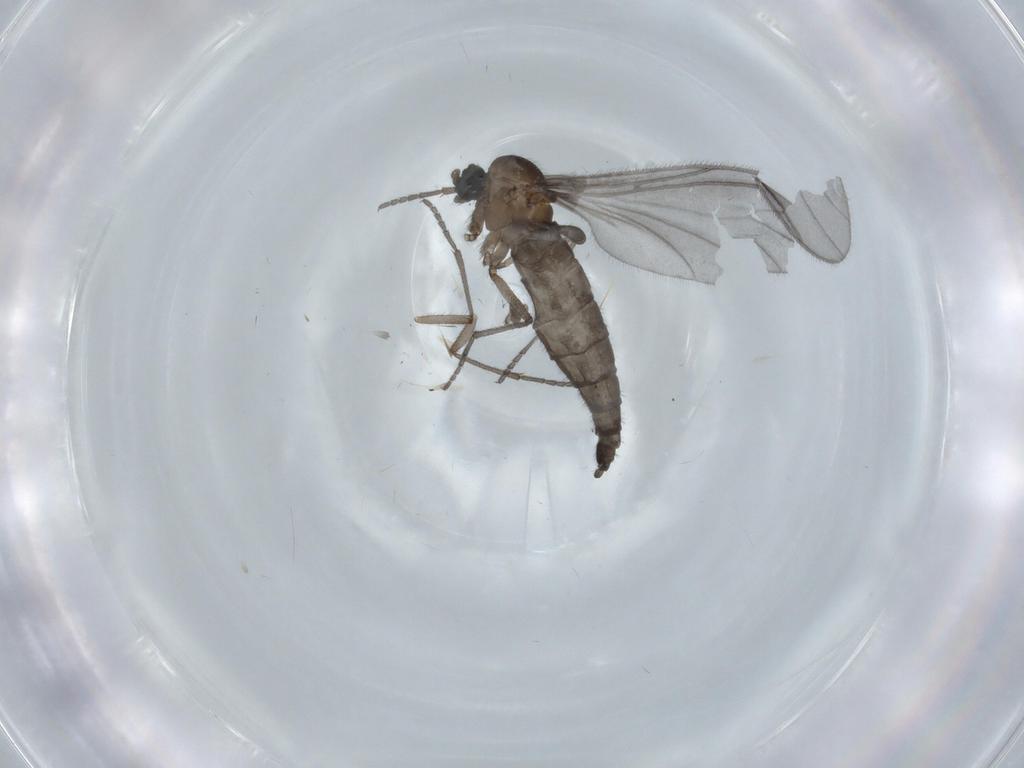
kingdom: Animalia
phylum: Arthropoda
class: Insecta
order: Diptera
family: Sciaridae
